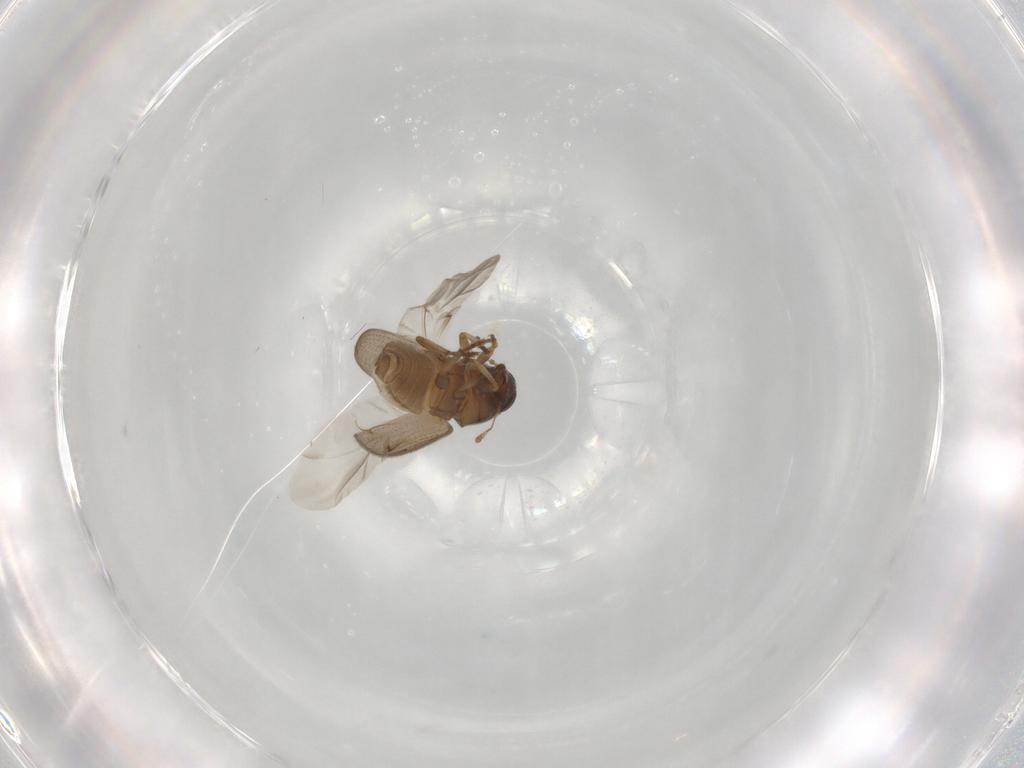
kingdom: Animalia
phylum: Arthropoda
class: Insecta
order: Coleoptera
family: Anthribidae
